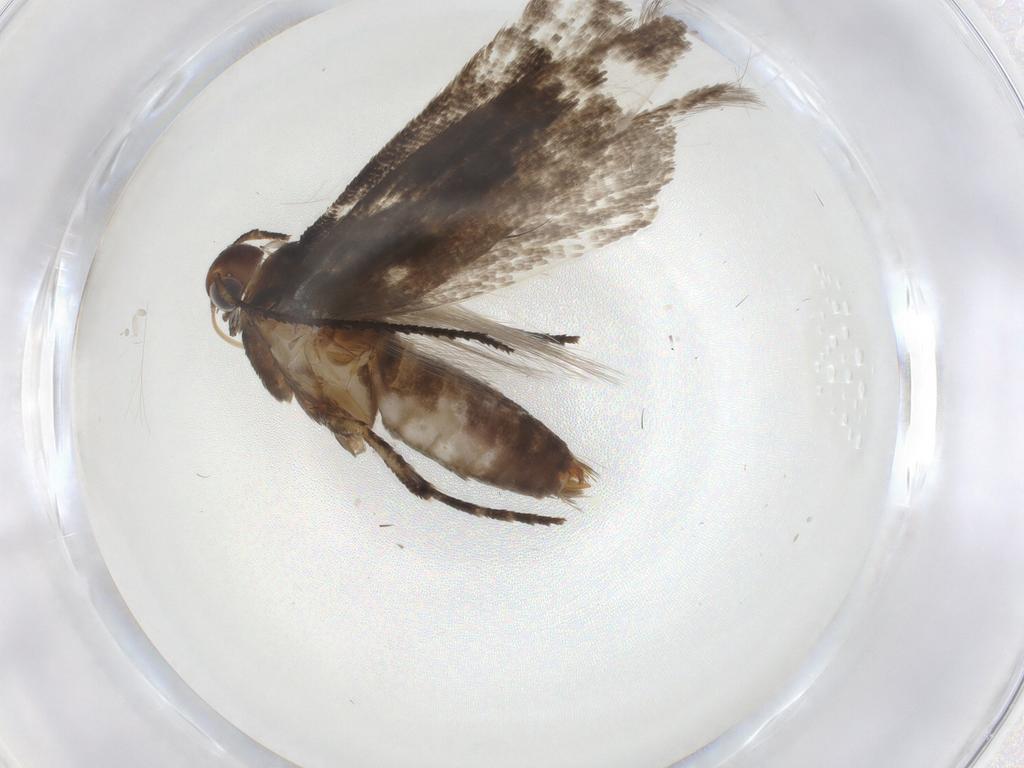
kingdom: Animalia
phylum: Arthropoda
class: Insecta
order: Lepidoptera
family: Gelechiidae
